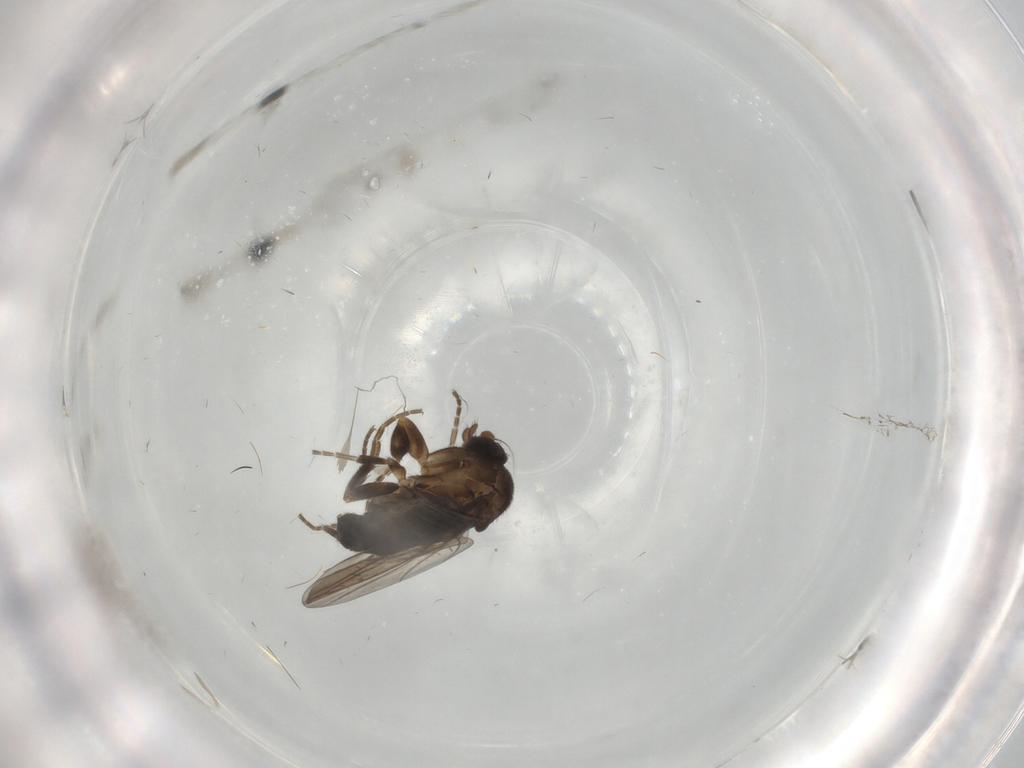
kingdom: Animalia
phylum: Arthropoda
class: Insecta
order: Diptera
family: Phoridae
